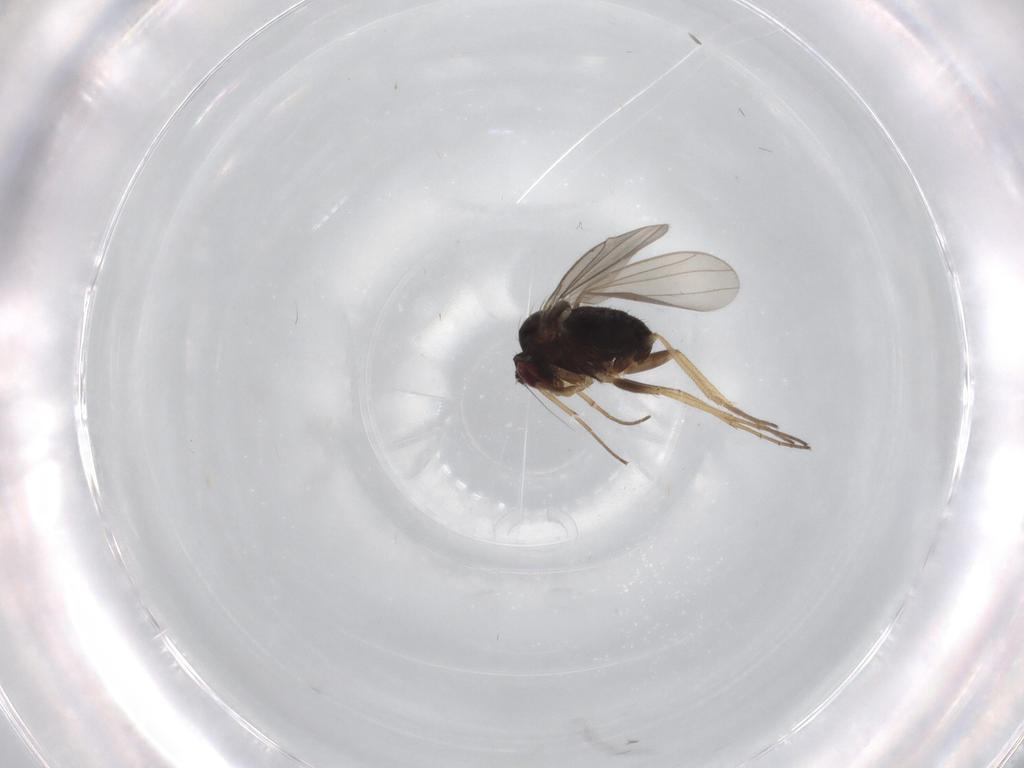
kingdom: Animalia
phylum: Arthropoda
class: Insecta
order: Diptera
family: Dolichopodidae
